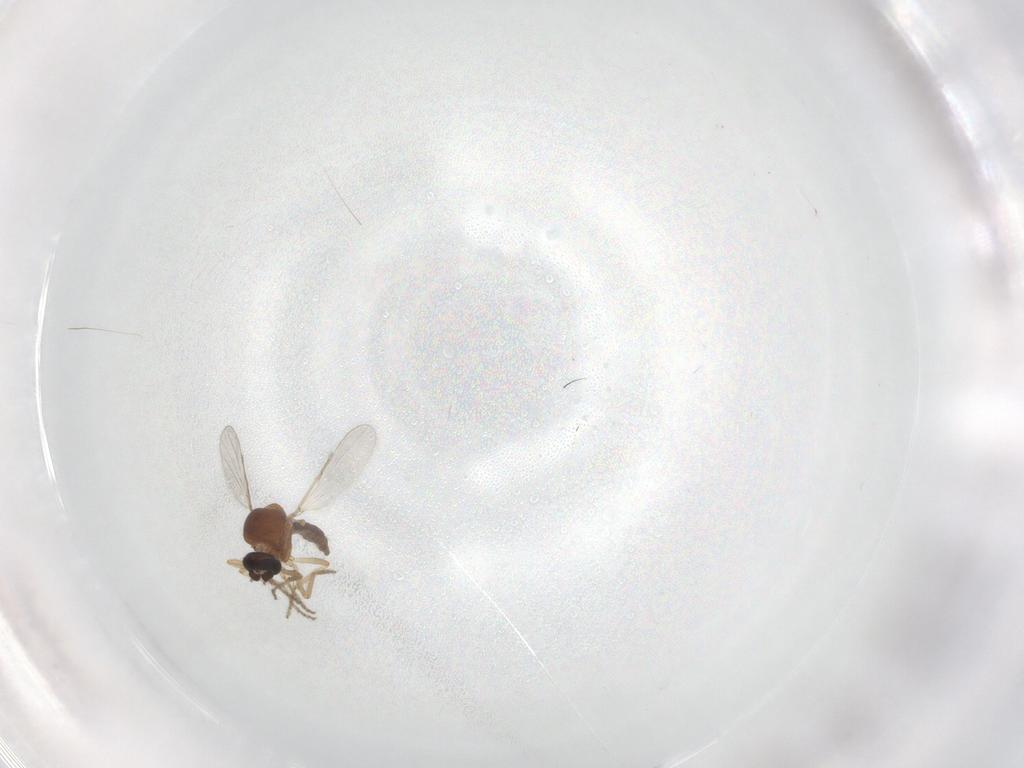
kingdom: Animalia
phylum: Arthropoda
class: Insecta
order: Diptera
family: Ceratopogonidae
